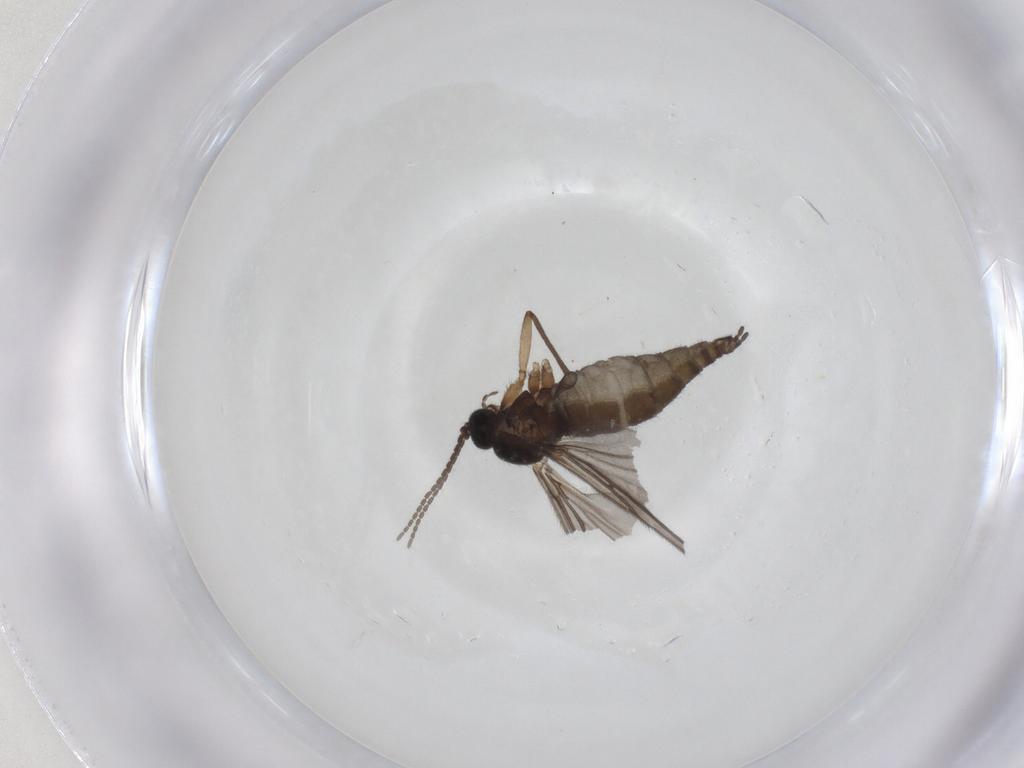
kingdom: Animalia
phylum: Arthropoda
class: Insecta
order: Diptera
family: Sciaridae
